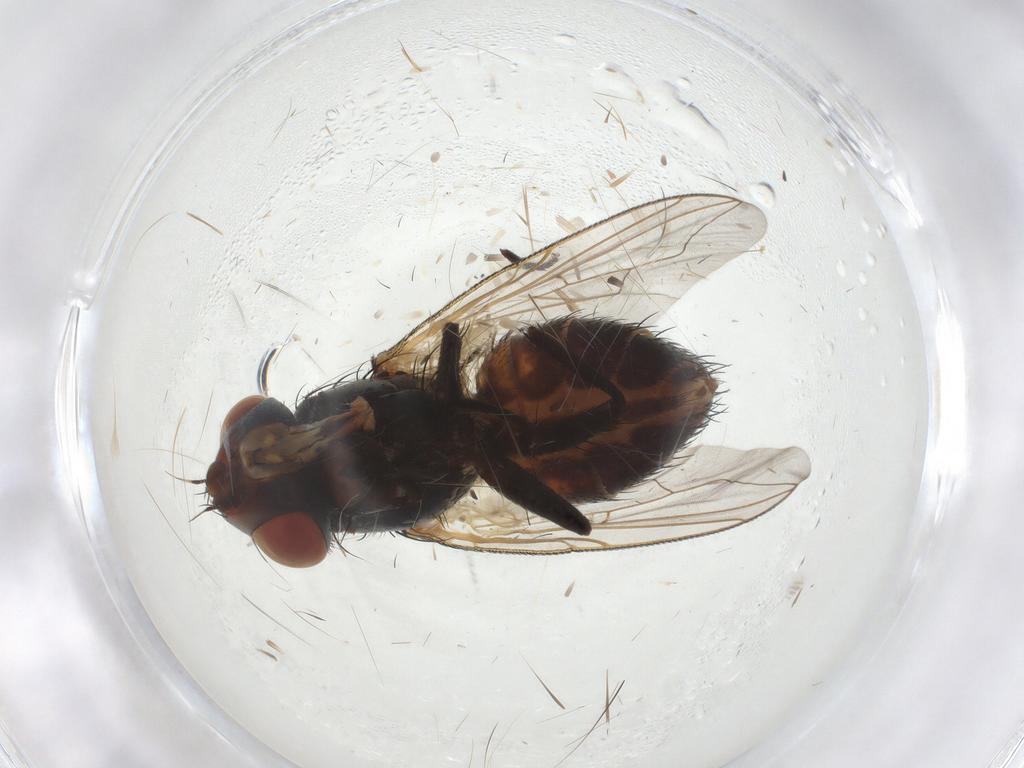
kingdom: Animalia
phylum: Arthropoda
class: Insecta
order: Diptera
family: Sarcophagidae
